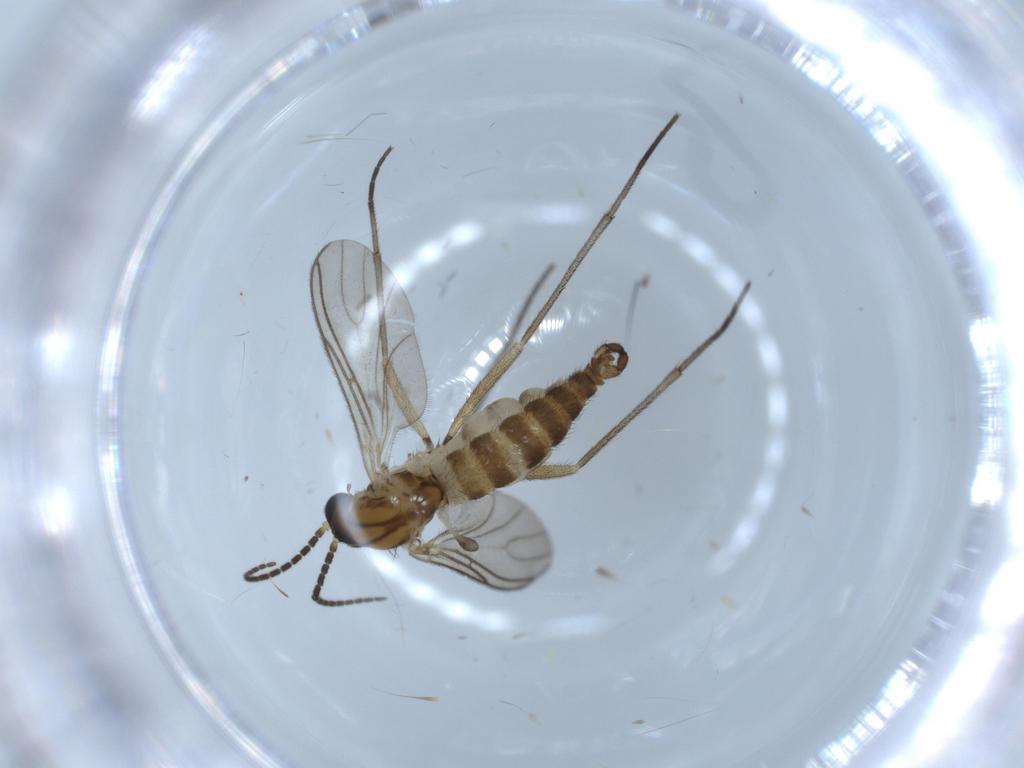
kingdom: Animalia
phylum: Arthropoda
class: Insecta
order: Diptera
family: Sciaridae
